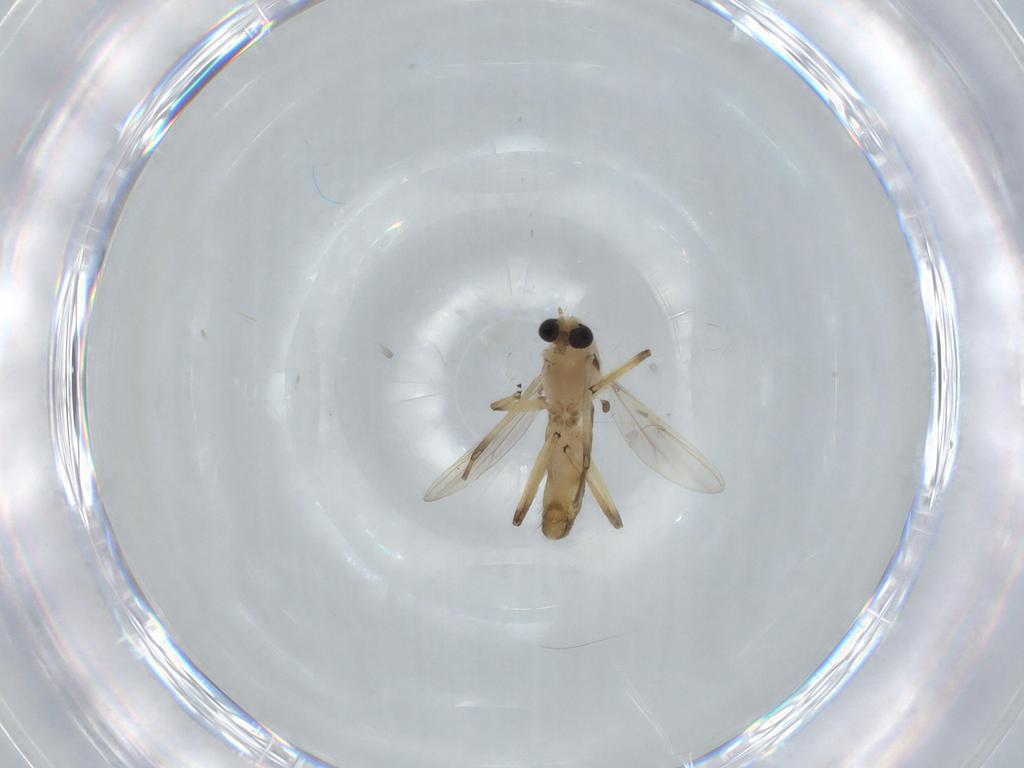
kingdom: Animalia
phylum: Arthropoda
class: Insecta
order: Diptera
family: Chironomidae
